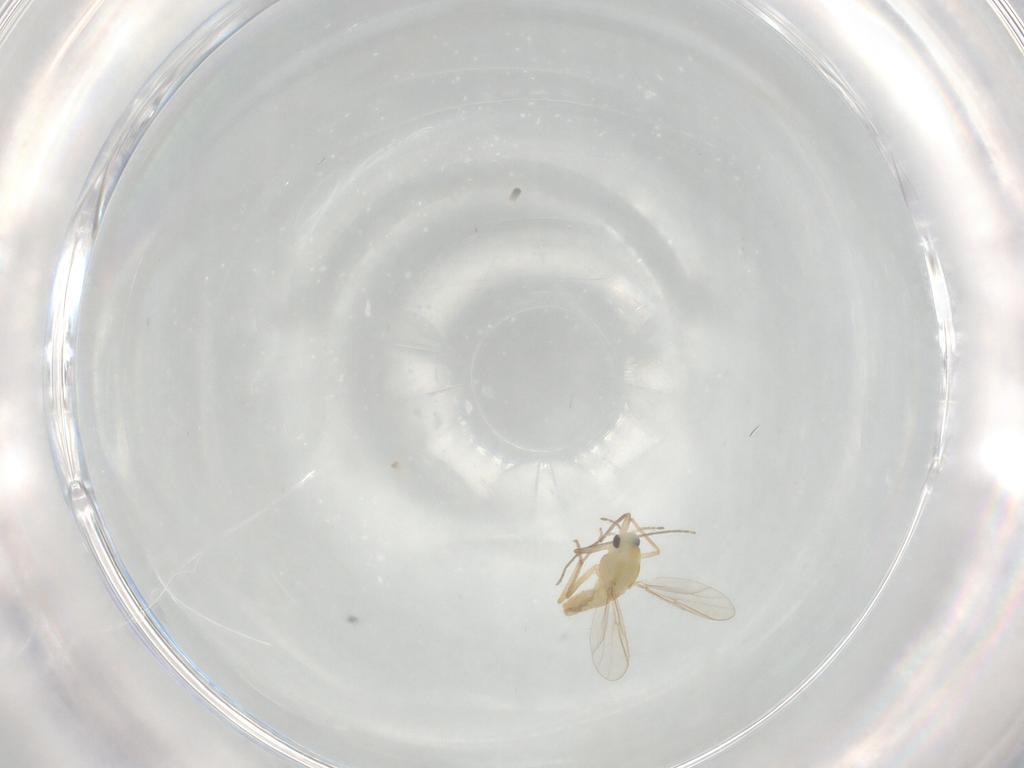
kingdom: Animalia
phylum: Arthropoda
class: Insecta
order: Diptera
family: Chironomidae
